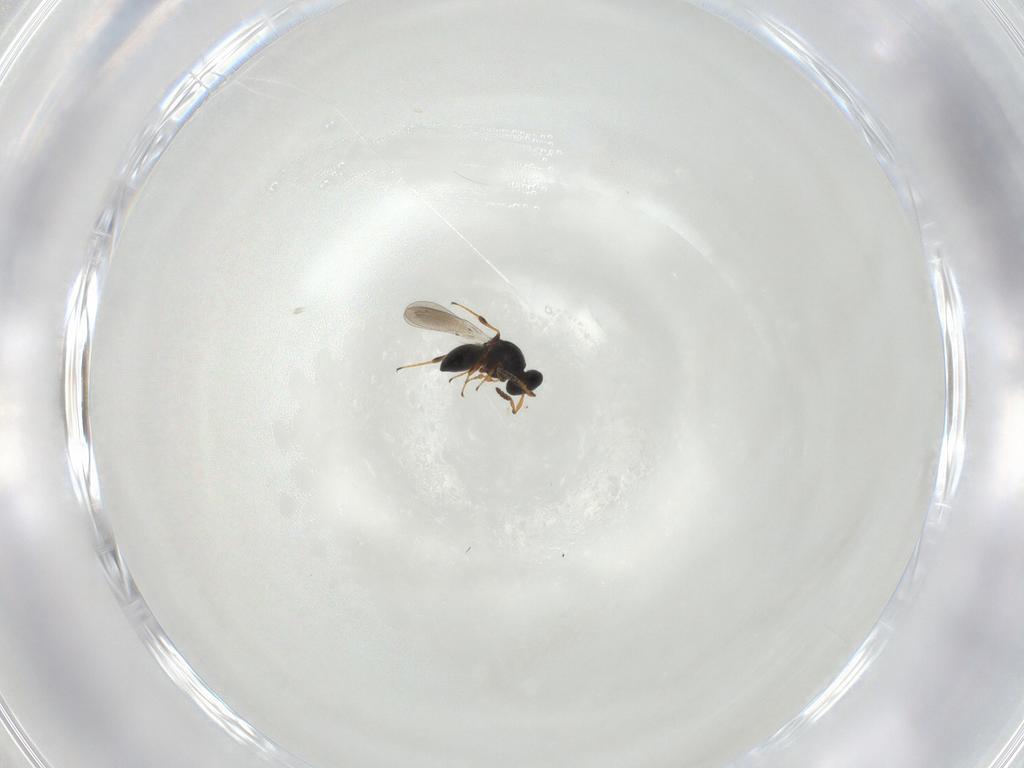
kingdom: Animalia
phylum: Arthropoda
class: Insecta
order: Hymenoptera
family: Platygastridae
